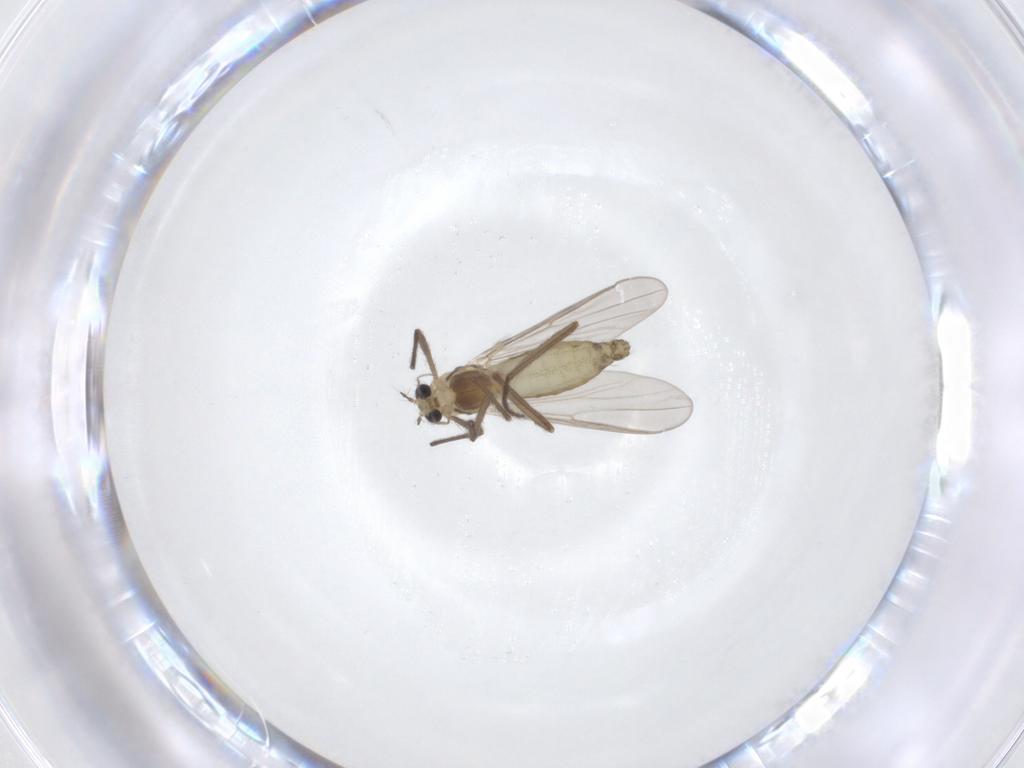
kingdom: Animalia
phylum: Arthropoda
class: Insecta
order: Diptera
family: Chironomidae
